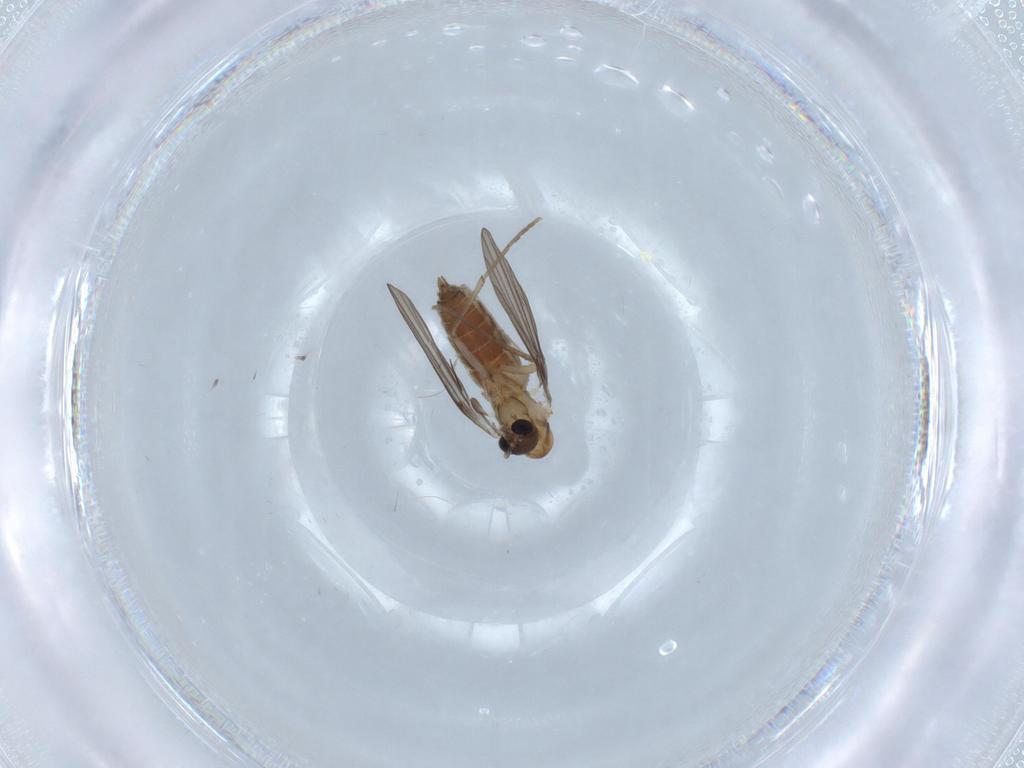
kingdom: Animalia
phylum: Arthropoda
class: Insecta
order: Diptera
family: Cecidomyiidae
